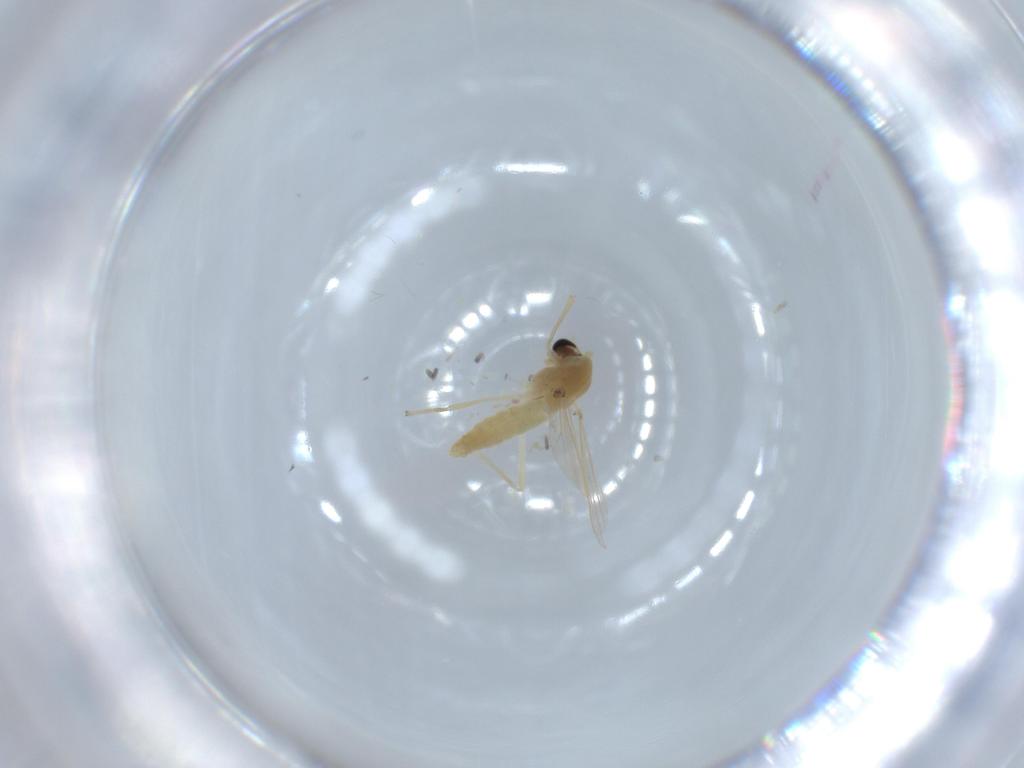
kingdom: Animalia
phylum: Arthropoda
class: Insecta
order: Diptera
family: Chironomidae
